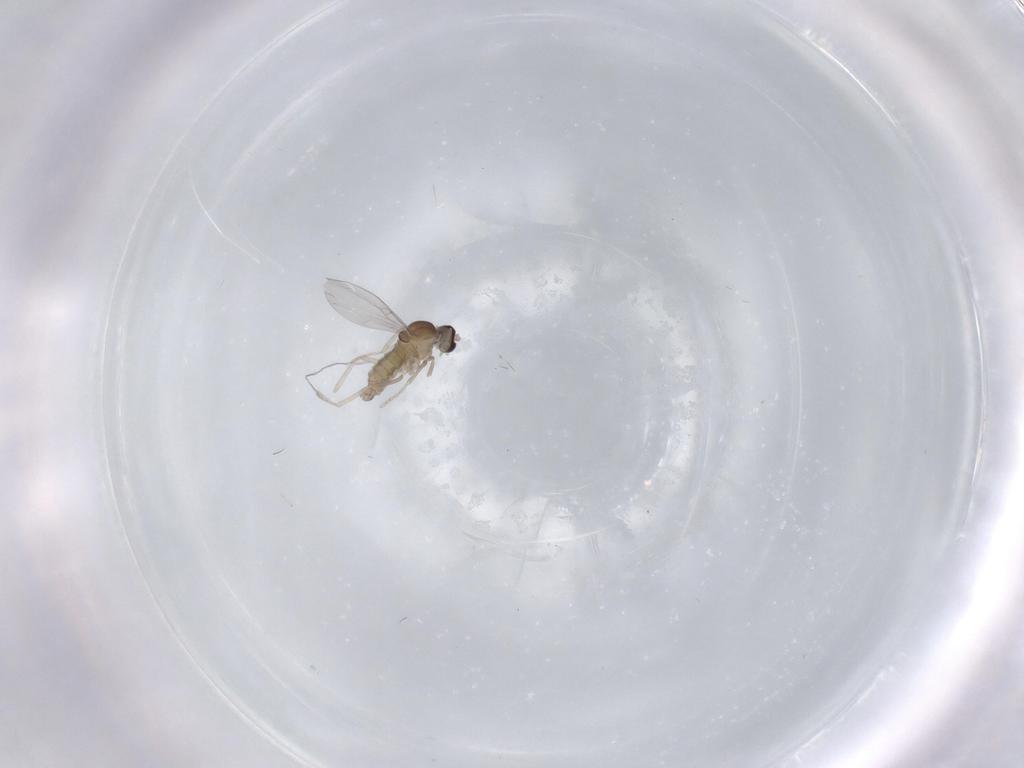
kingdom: Animalia
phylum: Arthropoda
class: Insecta
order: Diptera
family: Cecidomyiidae
